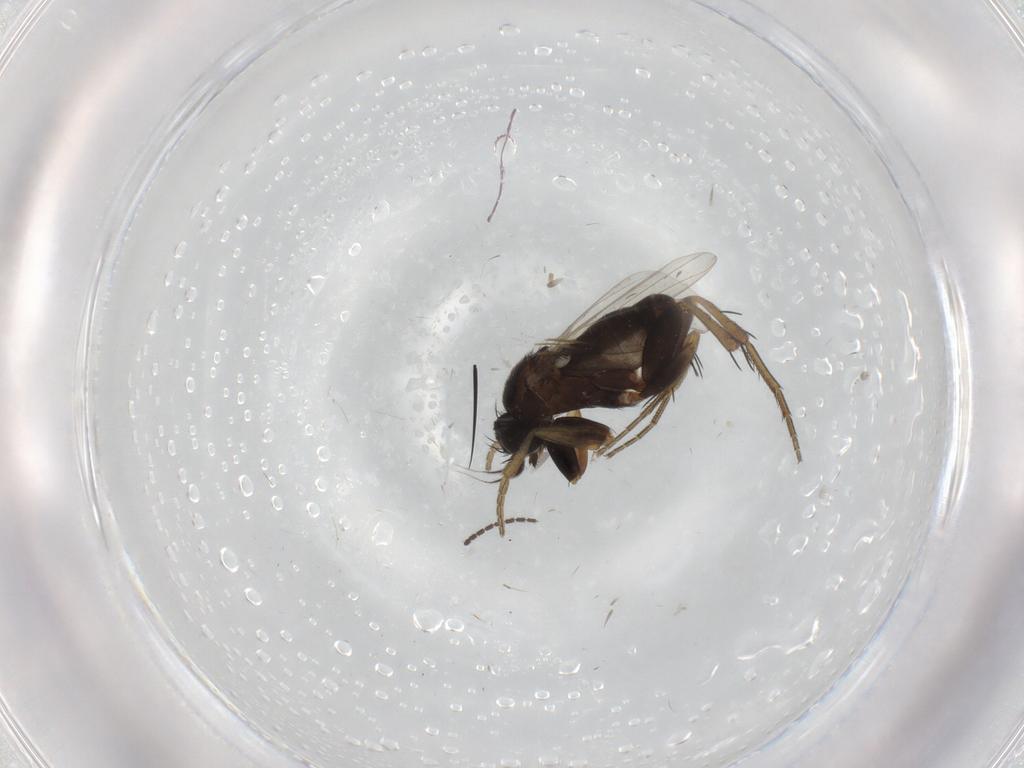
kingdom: Animalia
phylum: Arthropoda
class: Insecta
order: Diptera
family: Phoridae
